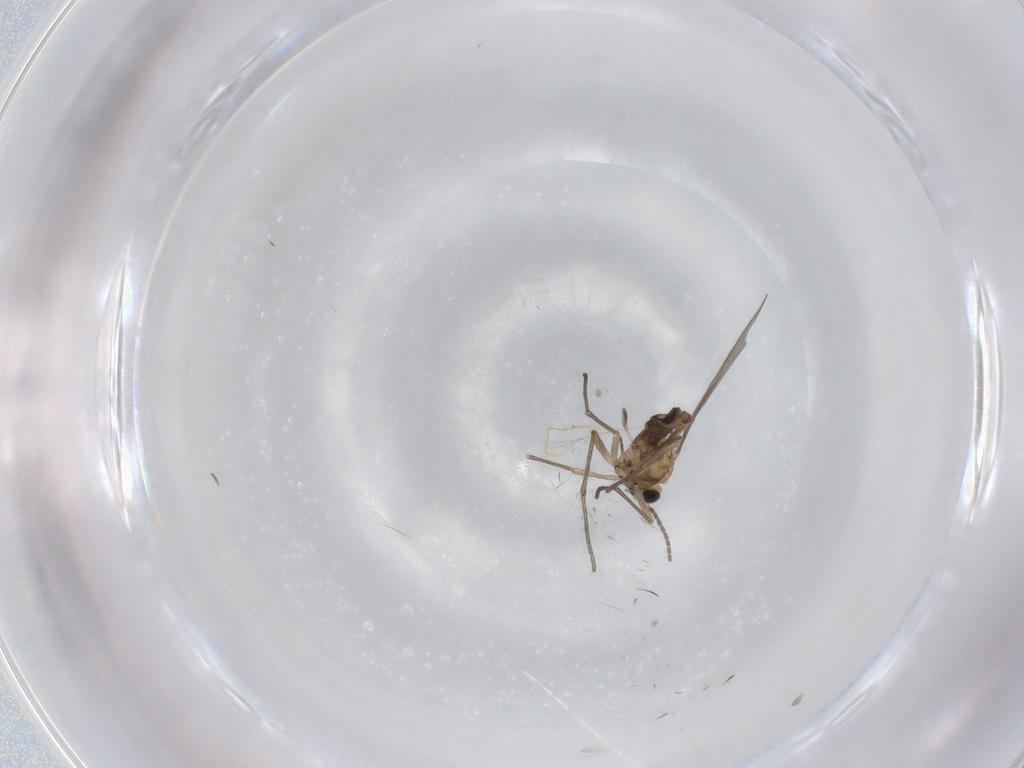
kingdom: Animalia
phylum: Arthropoda
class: Insecta
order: Diptera
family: Sciaridae
